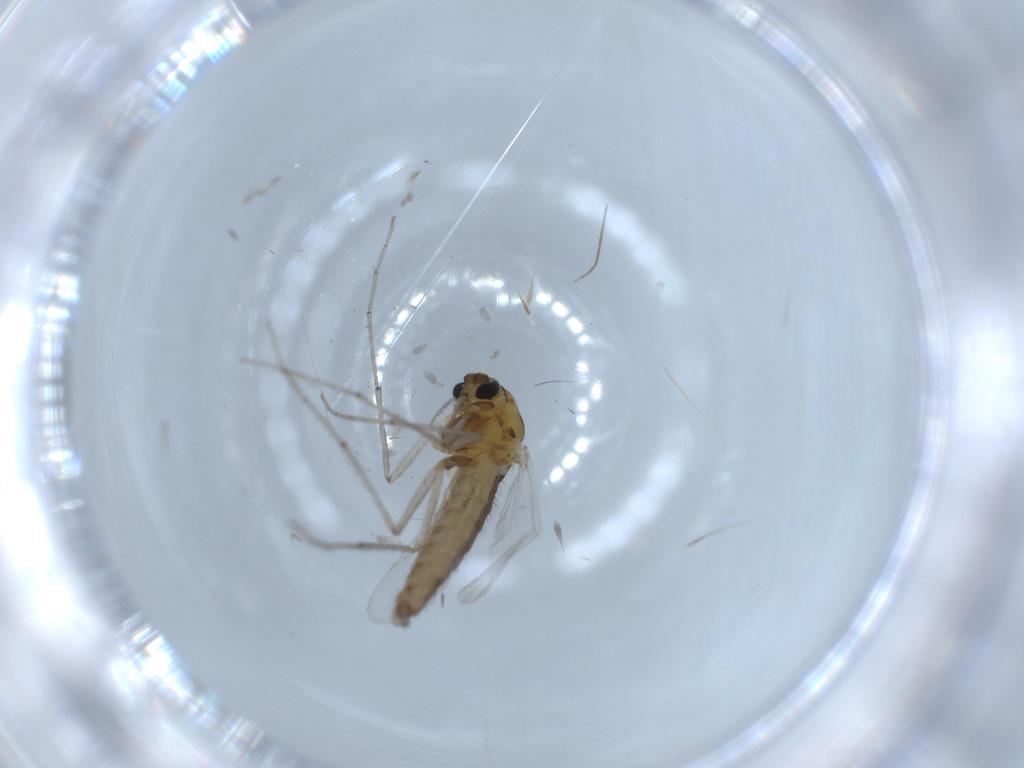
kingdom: Animalia
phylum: Arthropoda
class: Insecta
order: Diptera
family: Chironomidae
